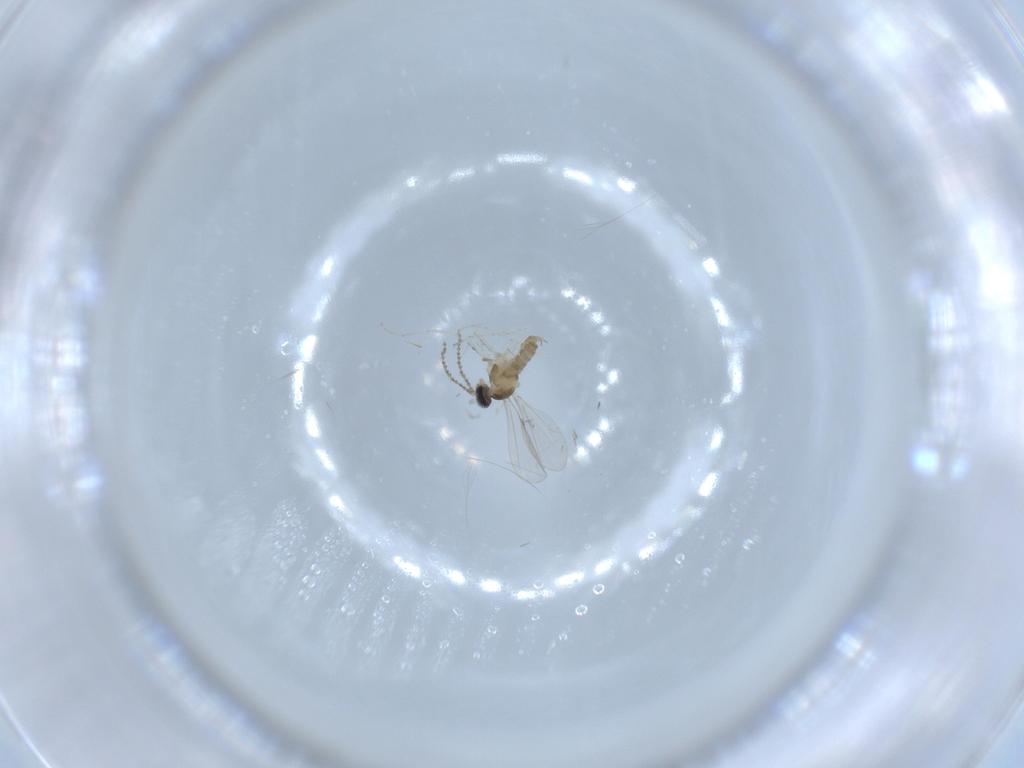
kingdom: Animalia
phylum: Arthropoda
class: Insecta
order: Diptera
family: Cecidomyiidae
